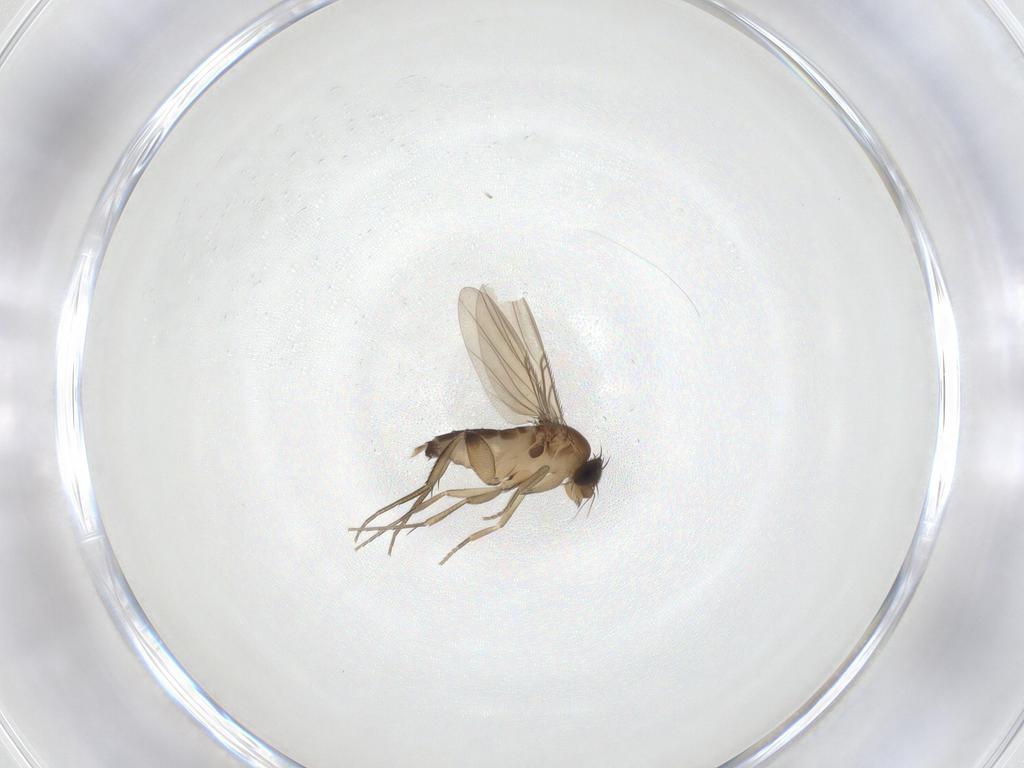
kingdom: Animalia
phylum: Arthropoda
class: Insecta
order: Diptera
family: Phoridae
